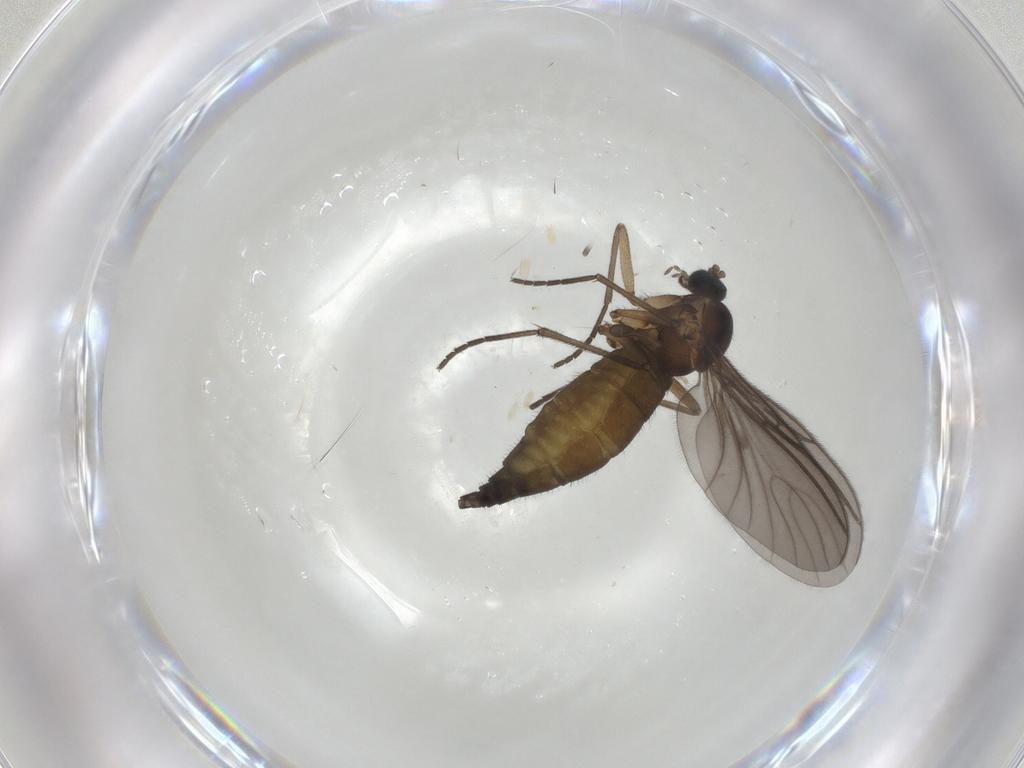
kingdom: Animalia
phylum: Arthropoda
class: Insecta
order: Diptera
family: Sciaridae
